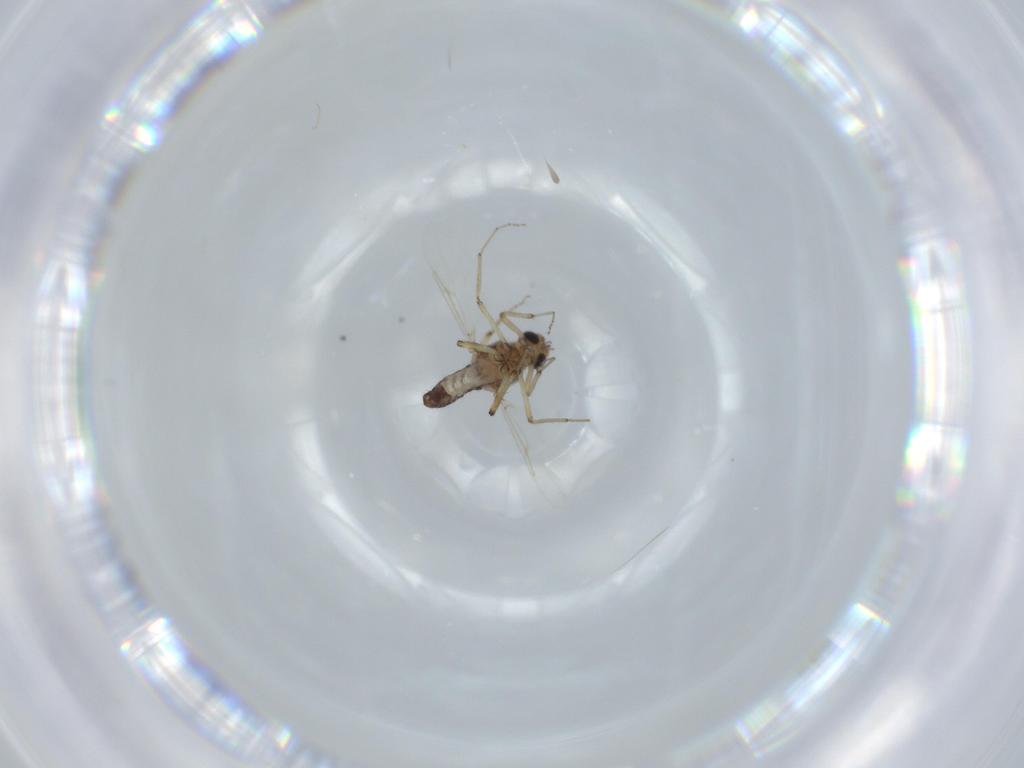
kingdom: Animalia
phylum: Arthropoda
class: Insecta
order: Diptera
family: Ceratopogonidae
